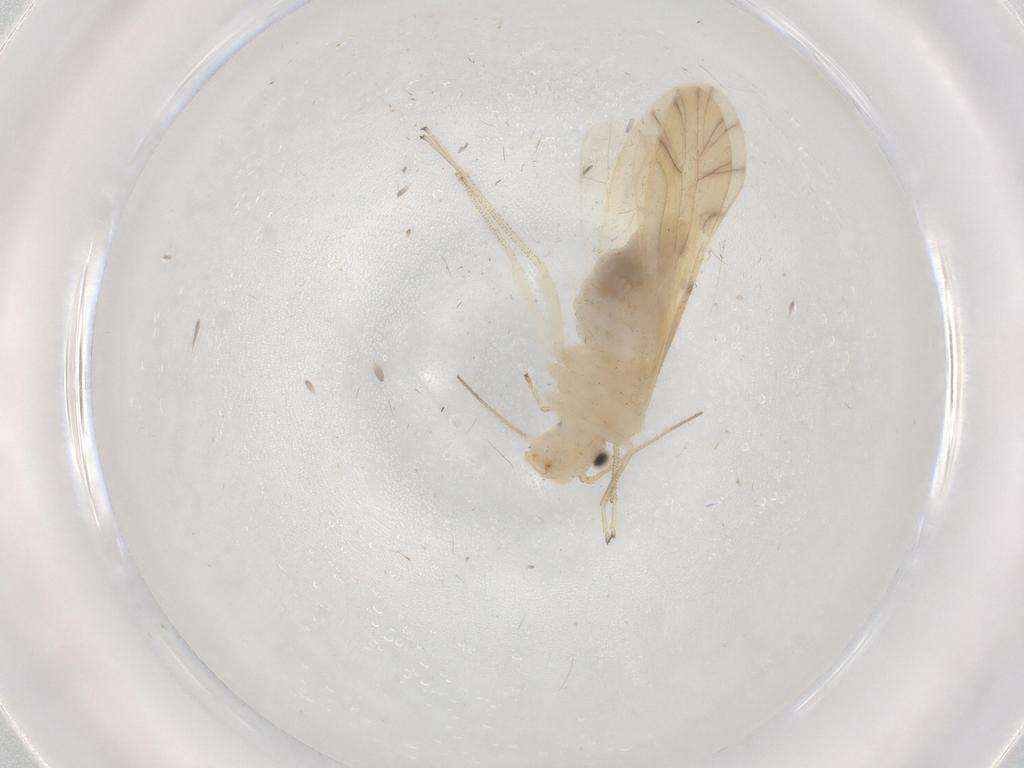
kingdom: Animalia
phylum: Arthropoda
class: Insecta
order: Psocodea
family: Caeciliusidae
